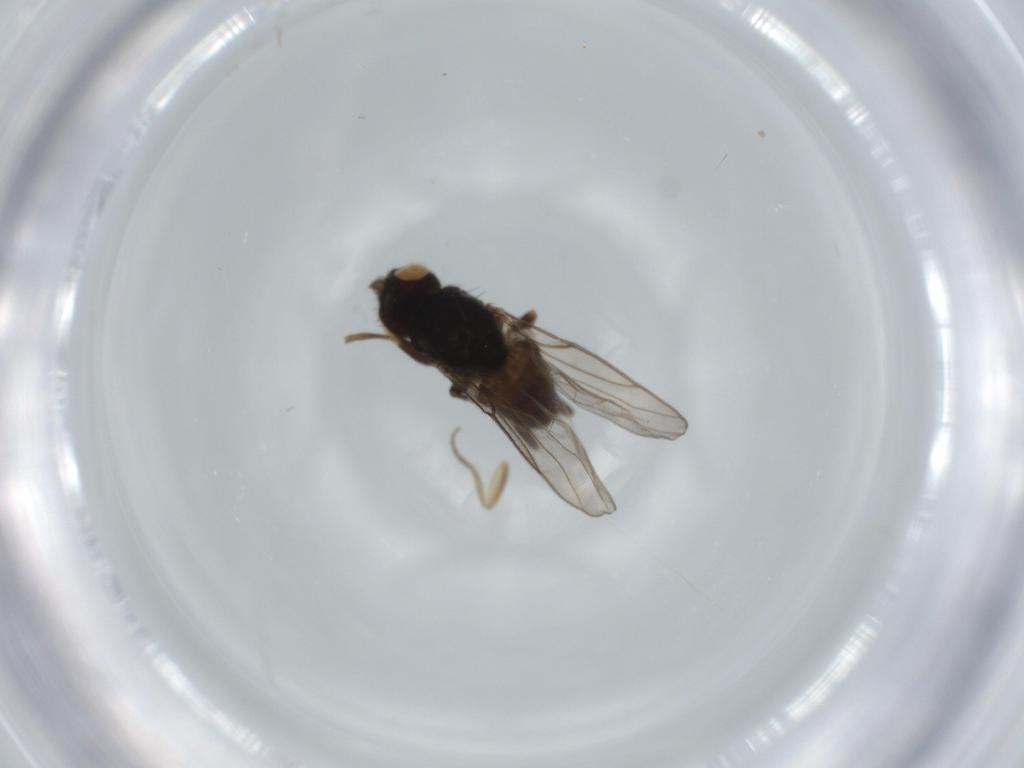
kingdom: Animalia
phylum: Arthropoda
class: Insecta
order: Diptera
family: Chloropidae
